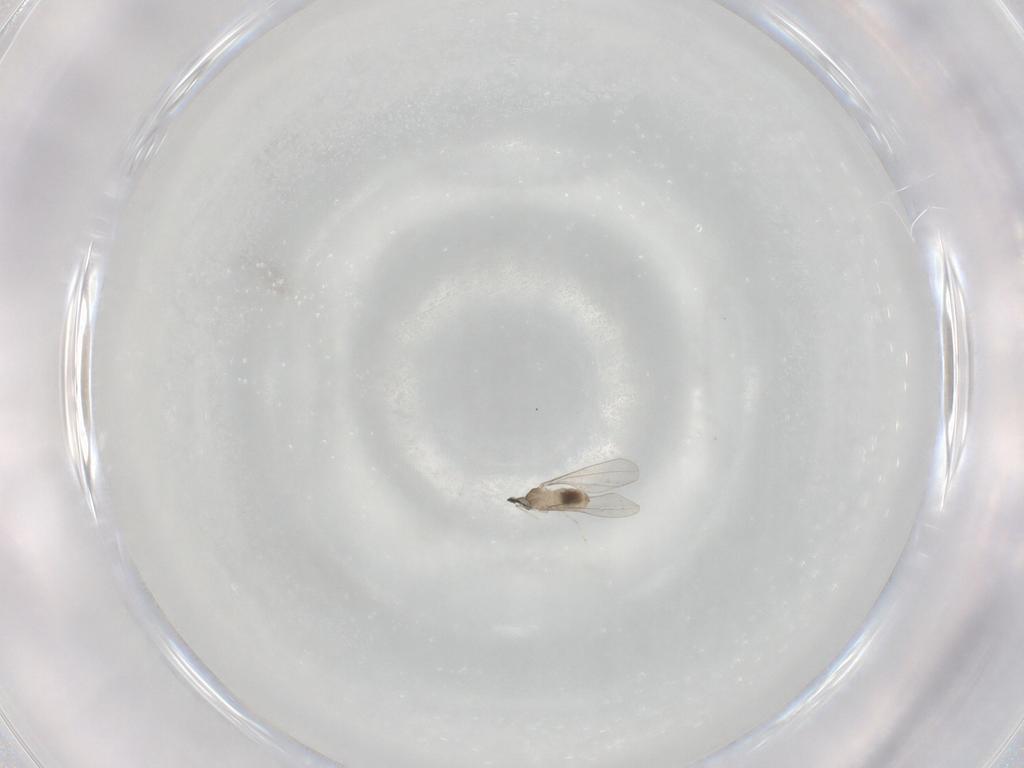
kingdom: Animalia
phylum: Arthropoda
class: Insecta
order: Diptera
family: Cecidomyiidae
